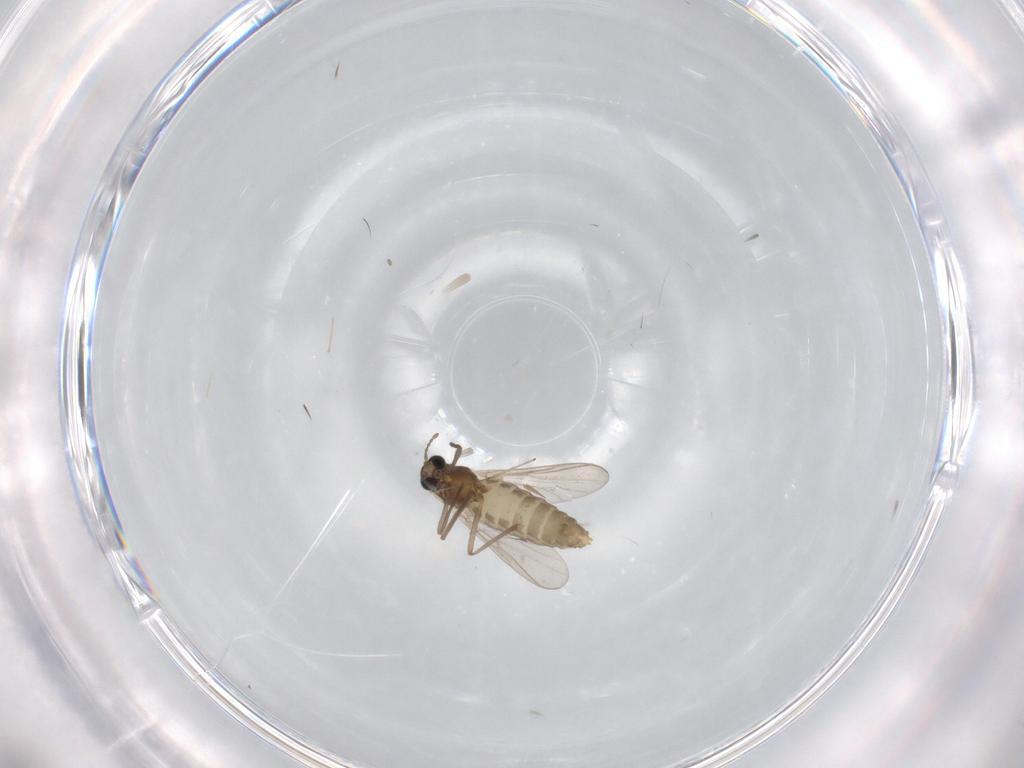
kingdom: Animalia
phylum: Arthropoda
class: Insecta
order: Diptera
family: Chironomidae
